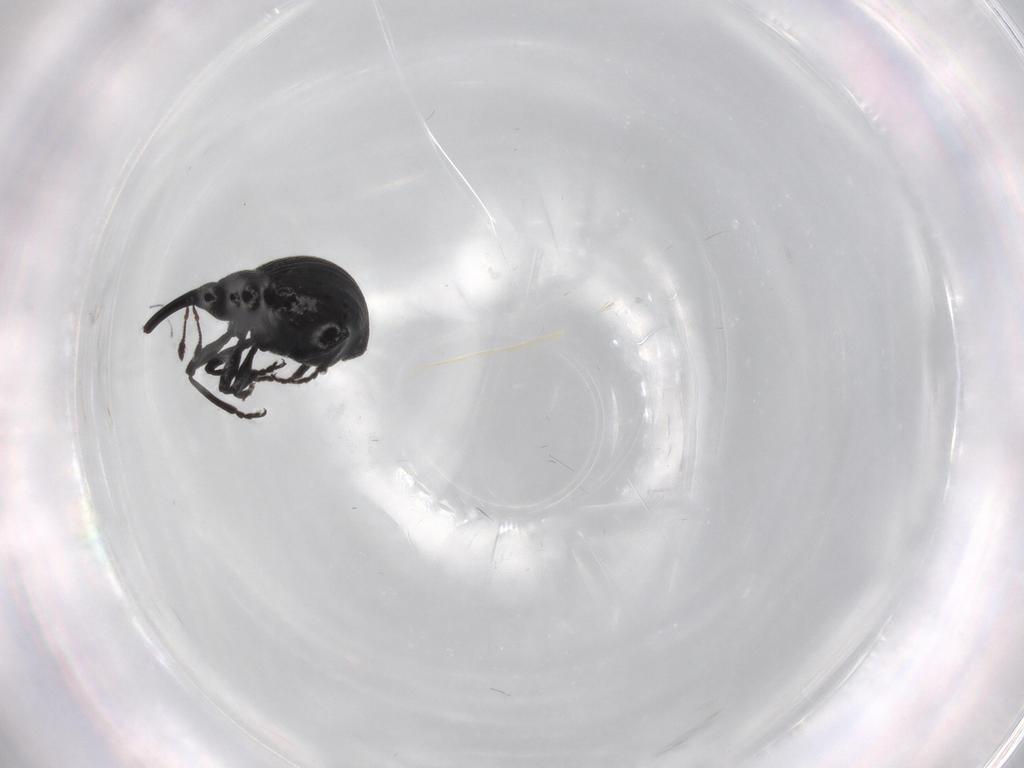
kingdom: Animalia
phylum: Arthropoda
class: Insecta
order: Coleoptera
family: Brentidae
